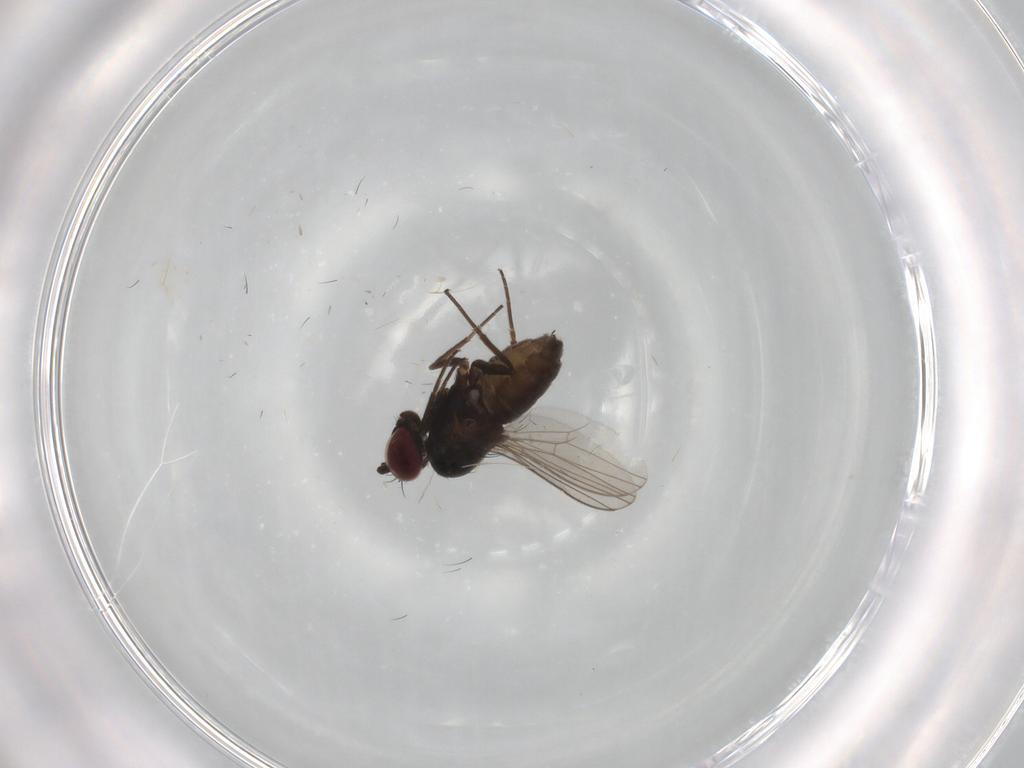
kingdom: Animalia
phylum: Arthropoda
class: Insecta
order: Diptera
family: Dolichopodidae
